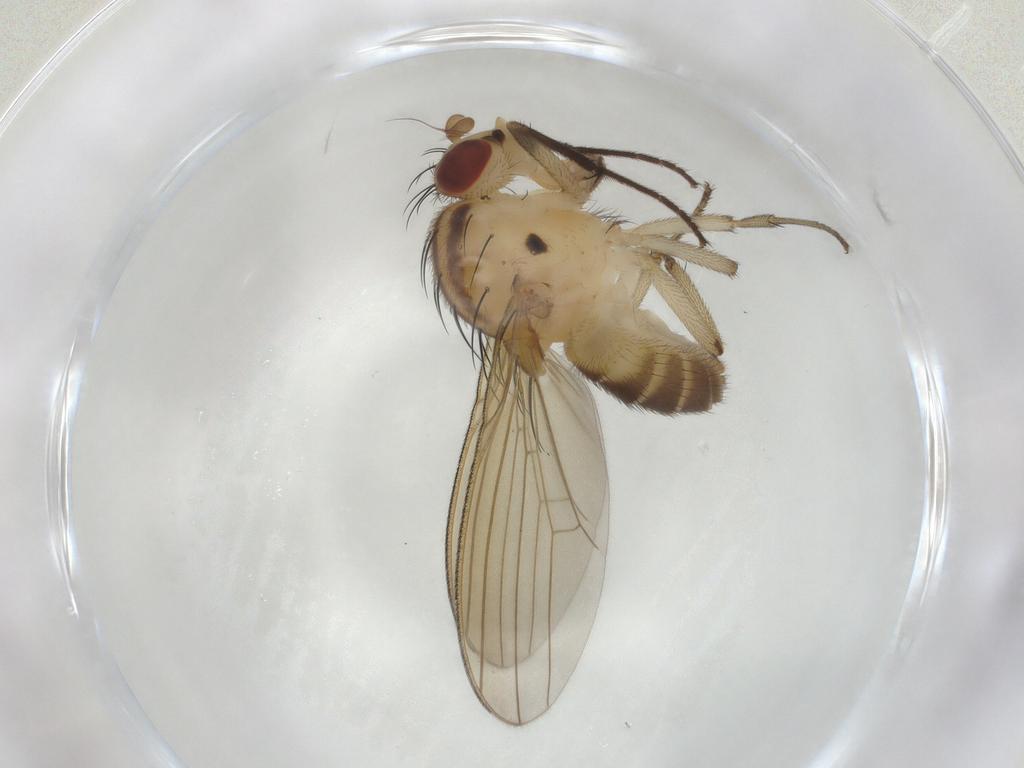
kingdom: Animalia
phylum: Arthropoda
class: Insecta
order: Diptera
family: Lauxaniidae
